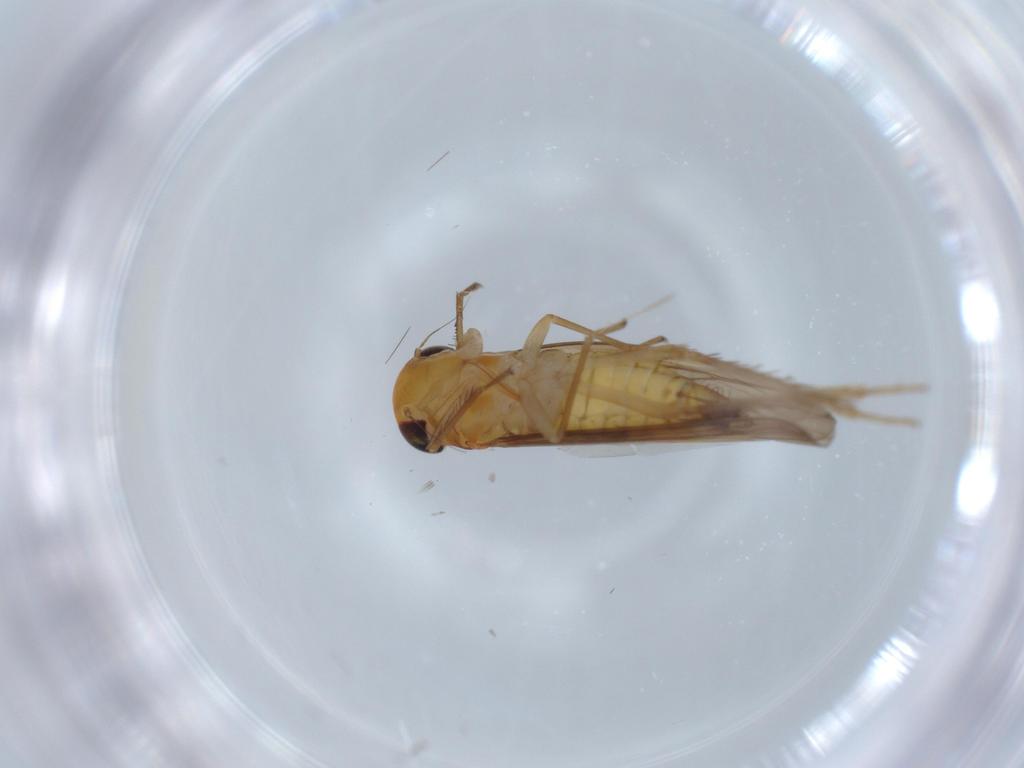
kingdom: Animalia
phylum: Arthropoda
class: Insecta
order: Hemiptera
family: Cicadellidae
